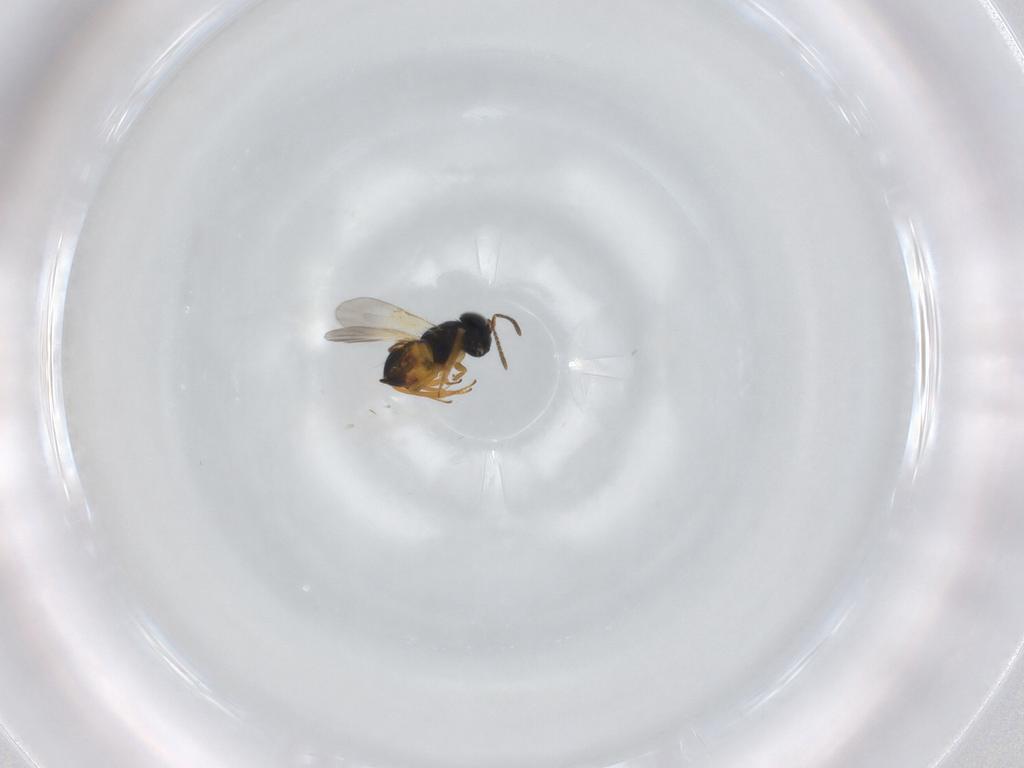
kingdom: Animalia
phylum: Arthropoda
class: Insecta
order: Hymenoptera
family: Encyrtidae
